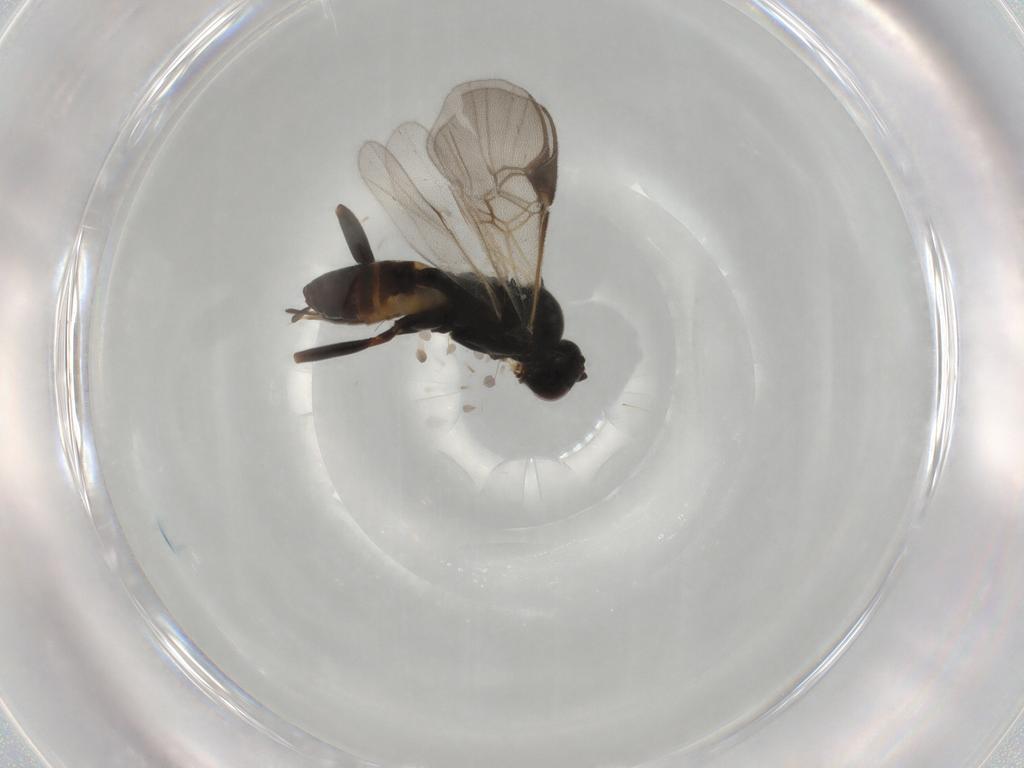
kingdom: Animalia
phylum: Arthropoda
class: Insecta
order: Hymenoptera
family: Braconidae
